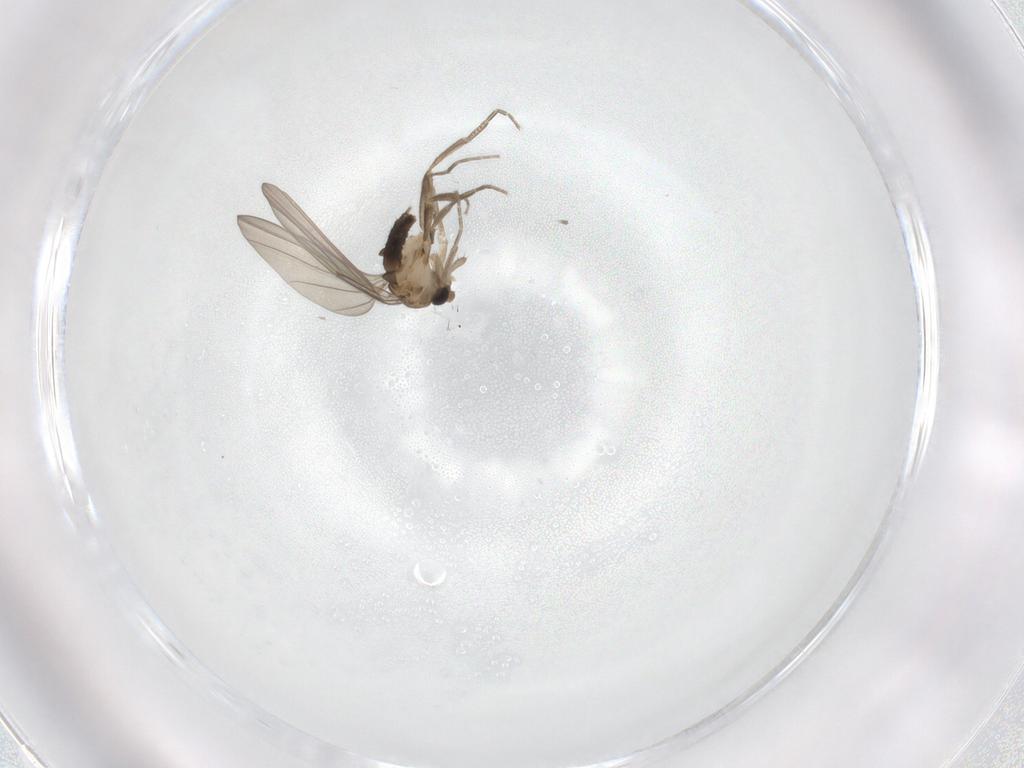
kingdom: Animalia
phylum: Arthropoda
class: Insecta
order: Diptera
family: Phoridae
